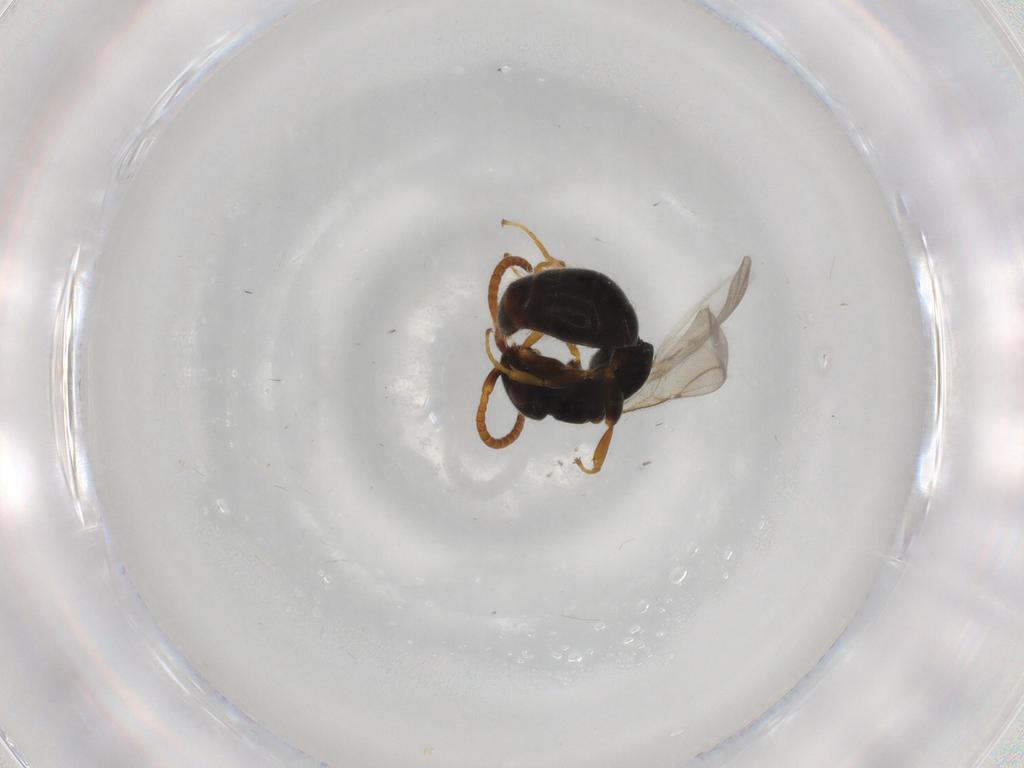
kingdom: Animalia
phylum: Arthropoda
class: Insecta
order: Hymenoptera
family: Bethylidae
